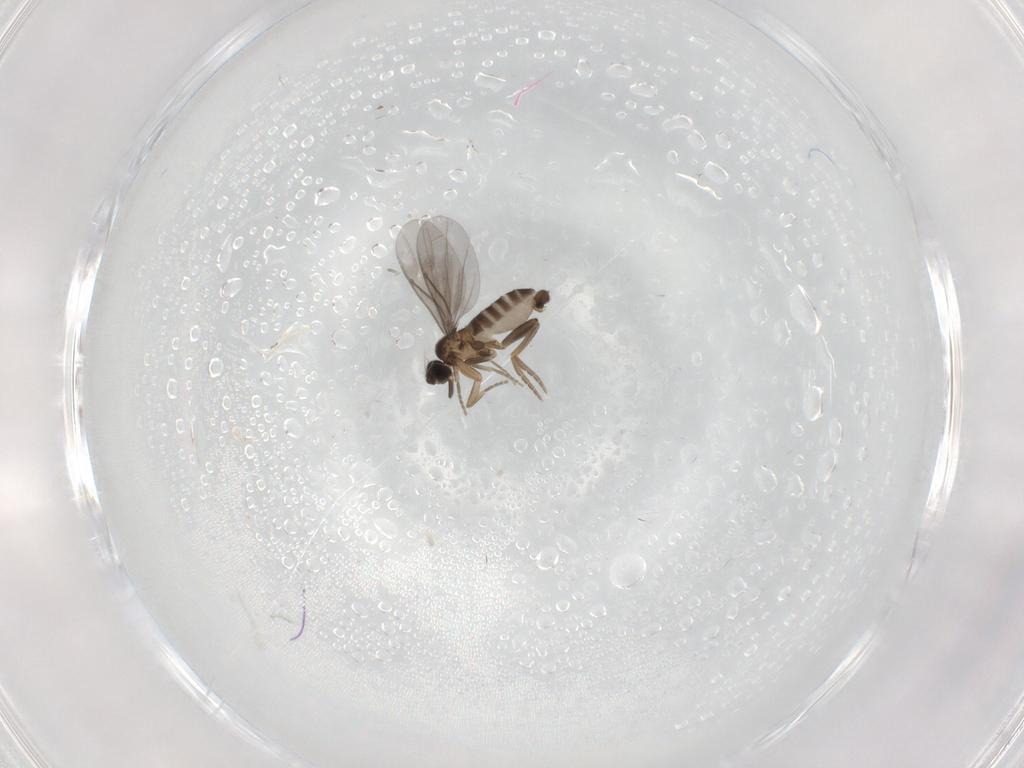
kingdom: Animalia
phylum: Arthropoda
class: Insecta
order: Diptera
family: Phoridae
